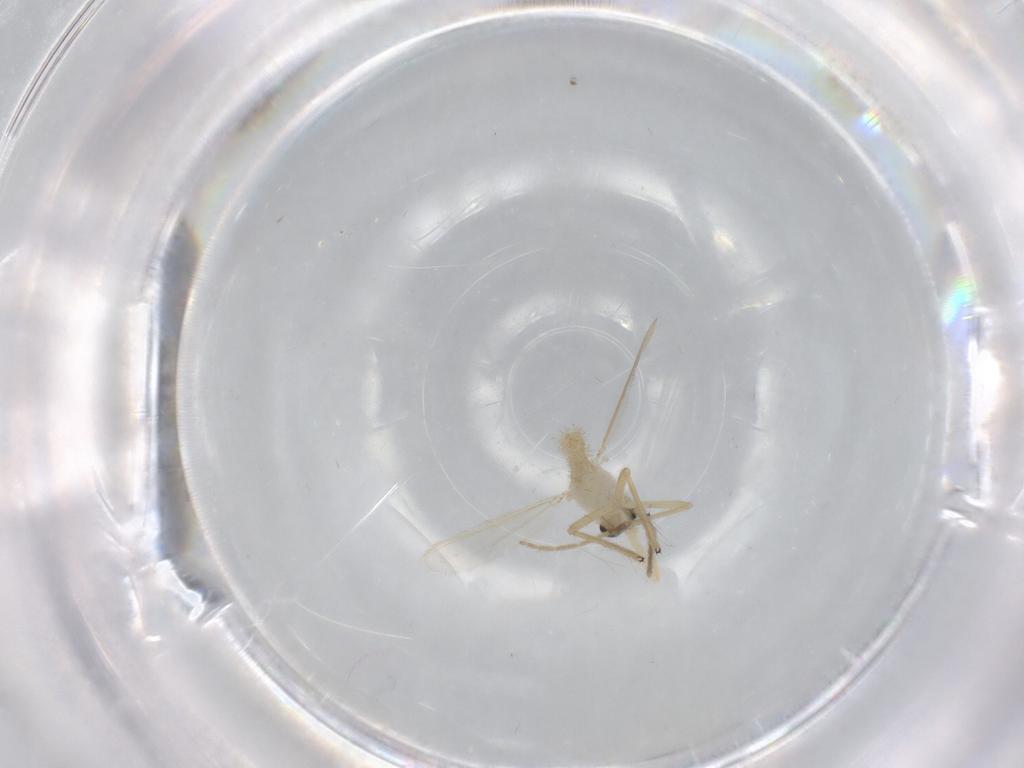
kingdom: Animalia
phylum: Arthropoda
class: Insecta
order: Diptera
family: Chironomidae
